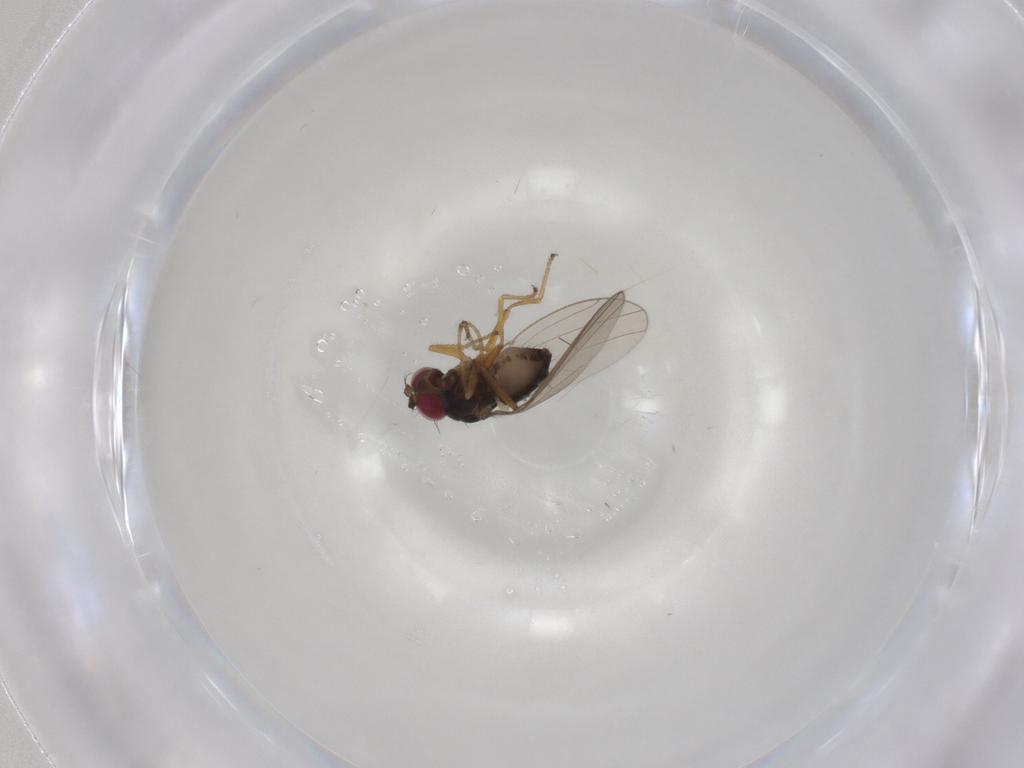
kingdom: Animalia
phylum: Arthropoda
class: Insecta
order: Diptera
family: Ephydridae
